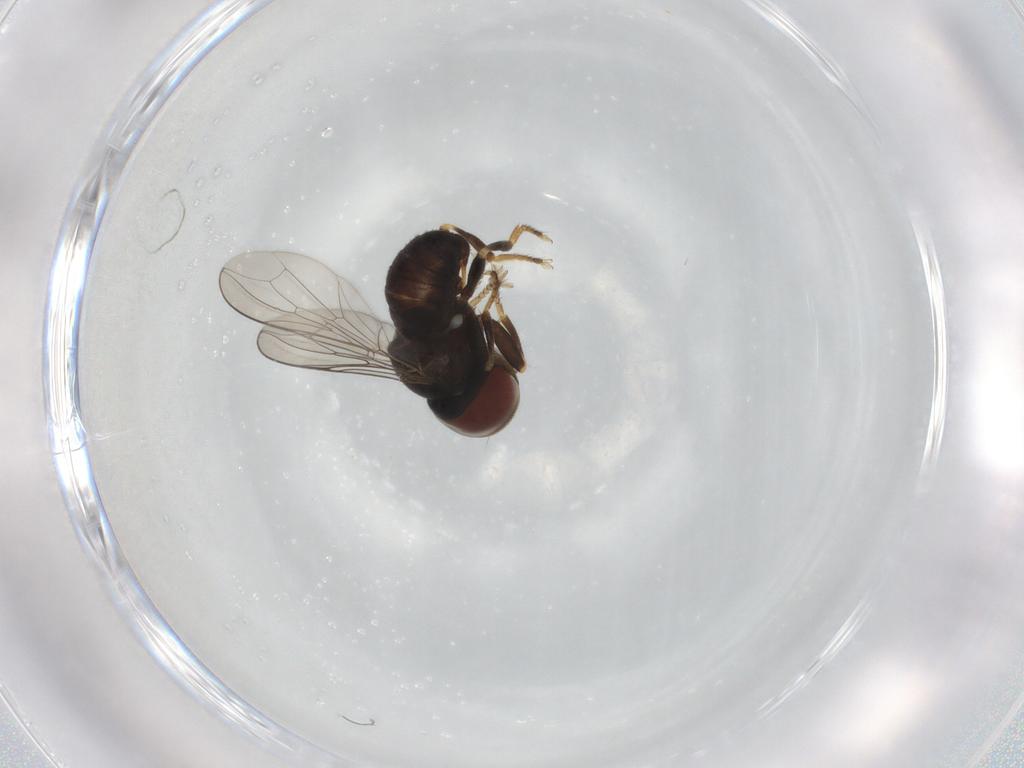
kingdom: Animalia
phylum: Arthropoda
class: Insecta
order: Diptera
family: Pipunculidae
